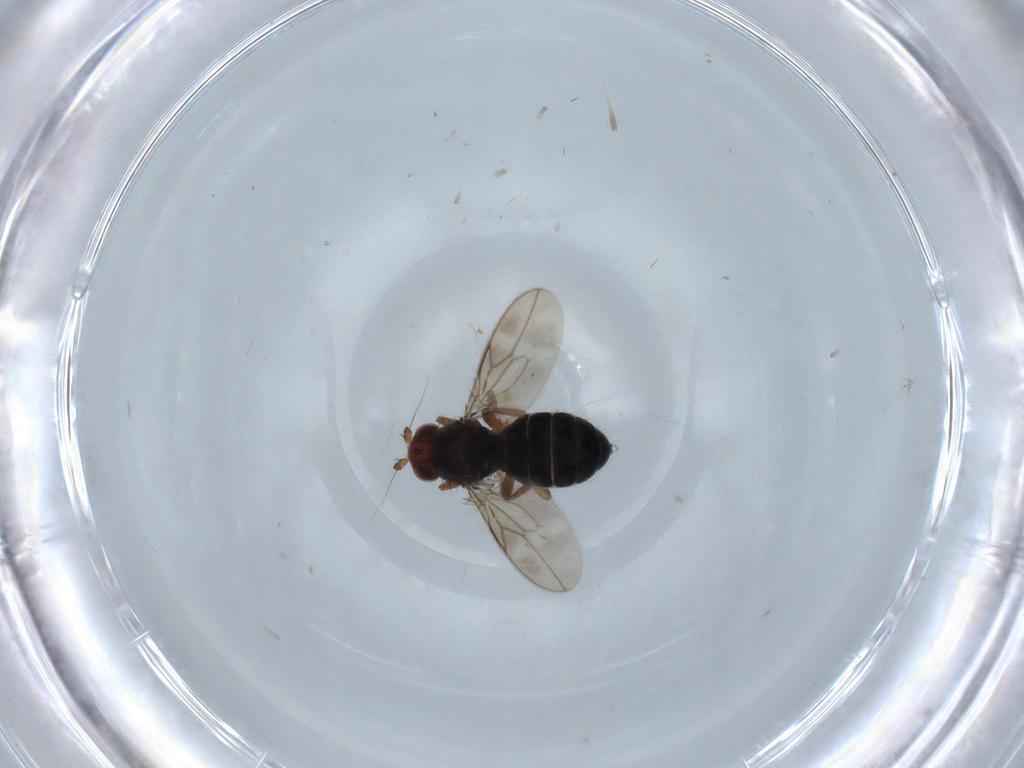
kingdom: Animalia
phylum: Arthropoda
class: Insecta
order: Diptera
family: Sphaeroceridae
